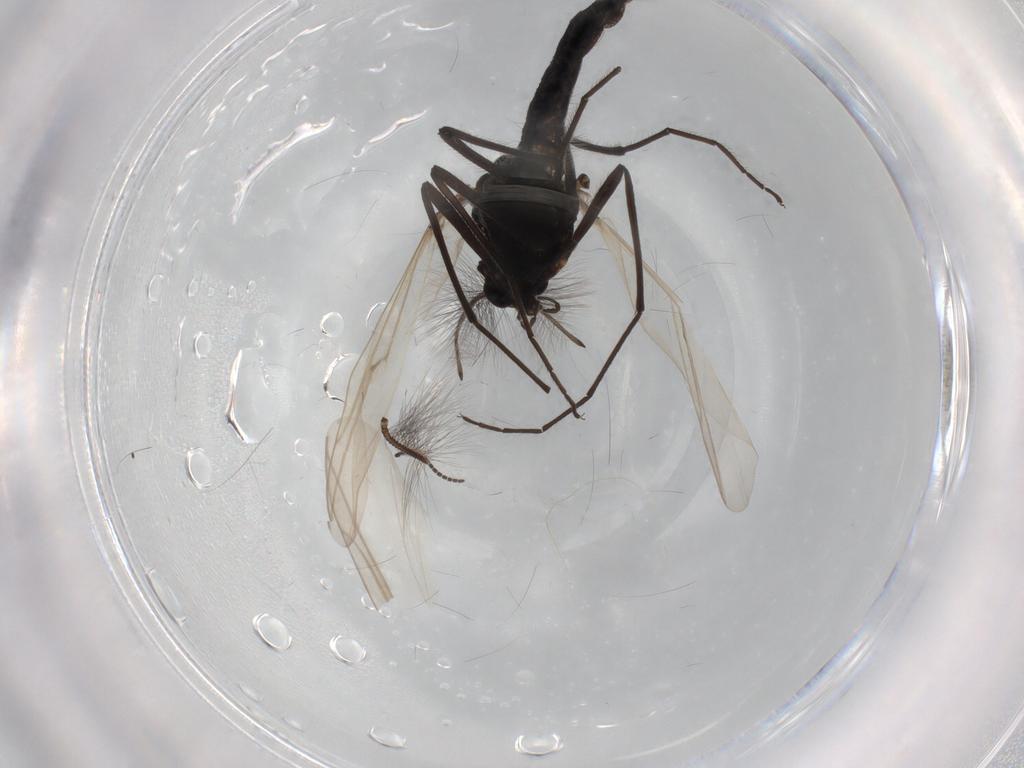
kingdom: Animalia
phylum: Arthropoda
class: Insecta
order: Diptera
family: Chironomidae
